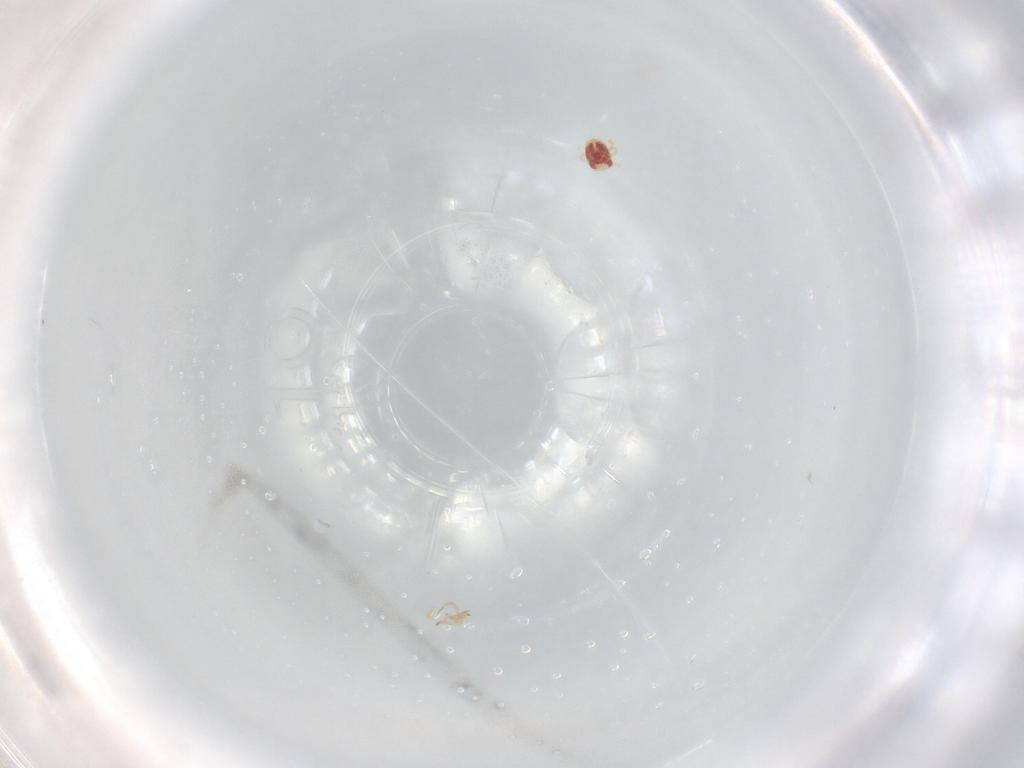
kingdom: Animalia
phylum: Arthropoda
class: Arachnida
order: Mesostigmata
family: Phytoseiidae
